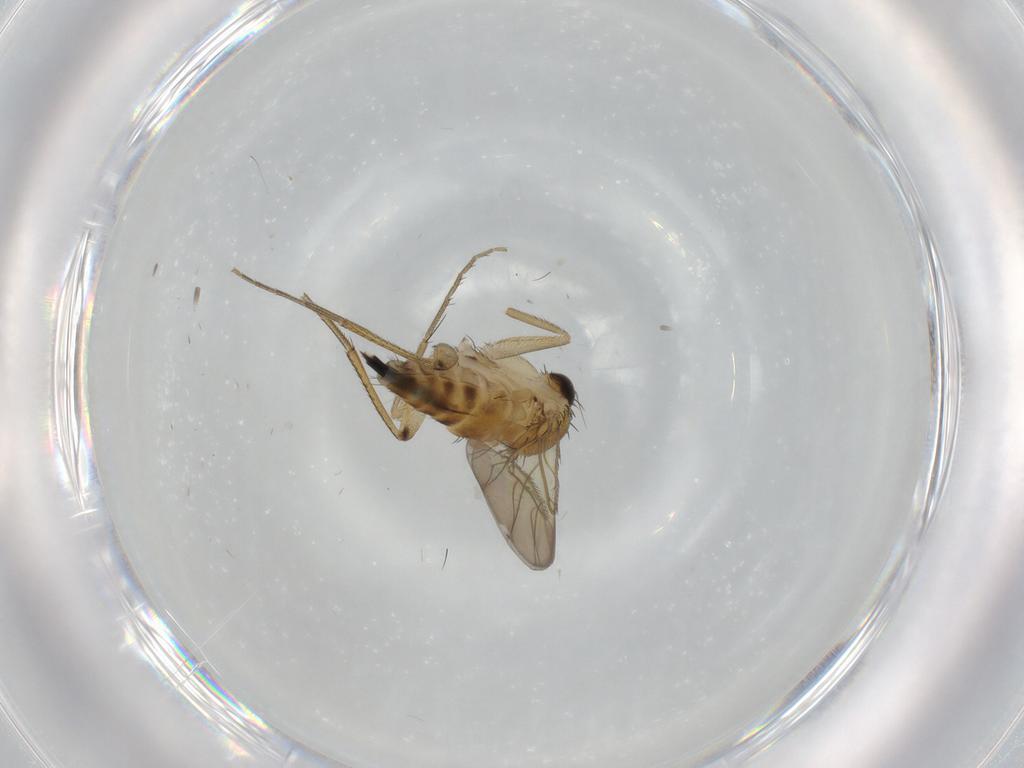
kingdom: Animalia
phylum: Arthropoda
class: Insecta
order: Diptera
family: Phoridae
